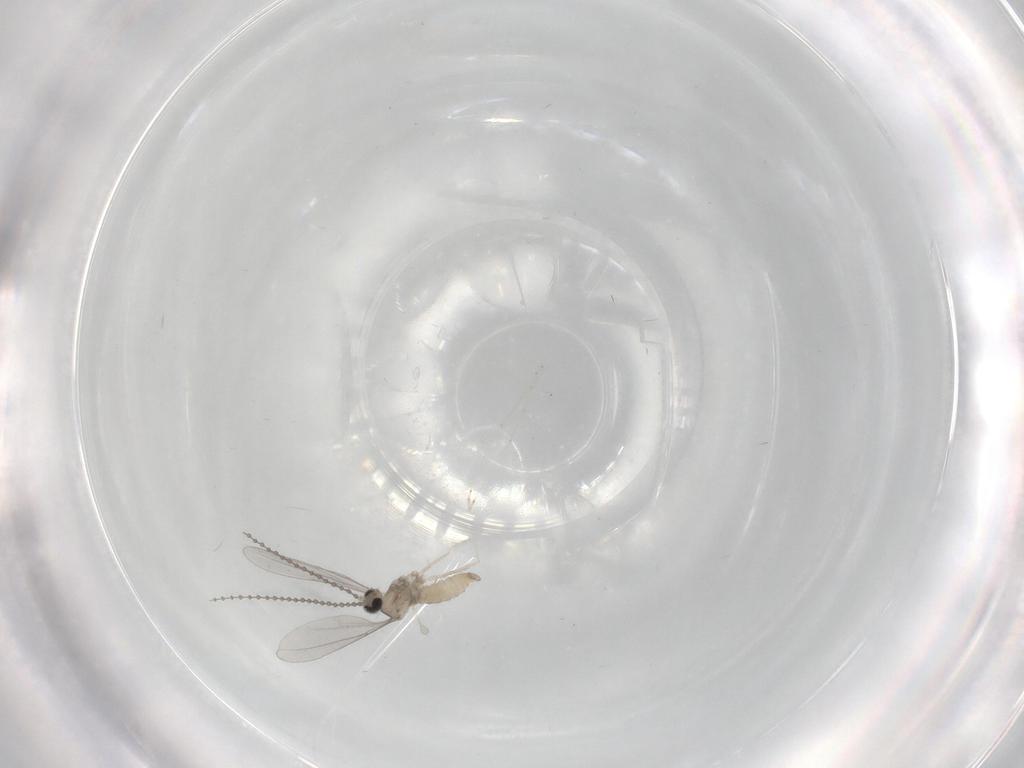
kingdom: Animalia
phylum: Arthropoda
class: Insecta
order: Diptera
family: Cecidomyiidae
